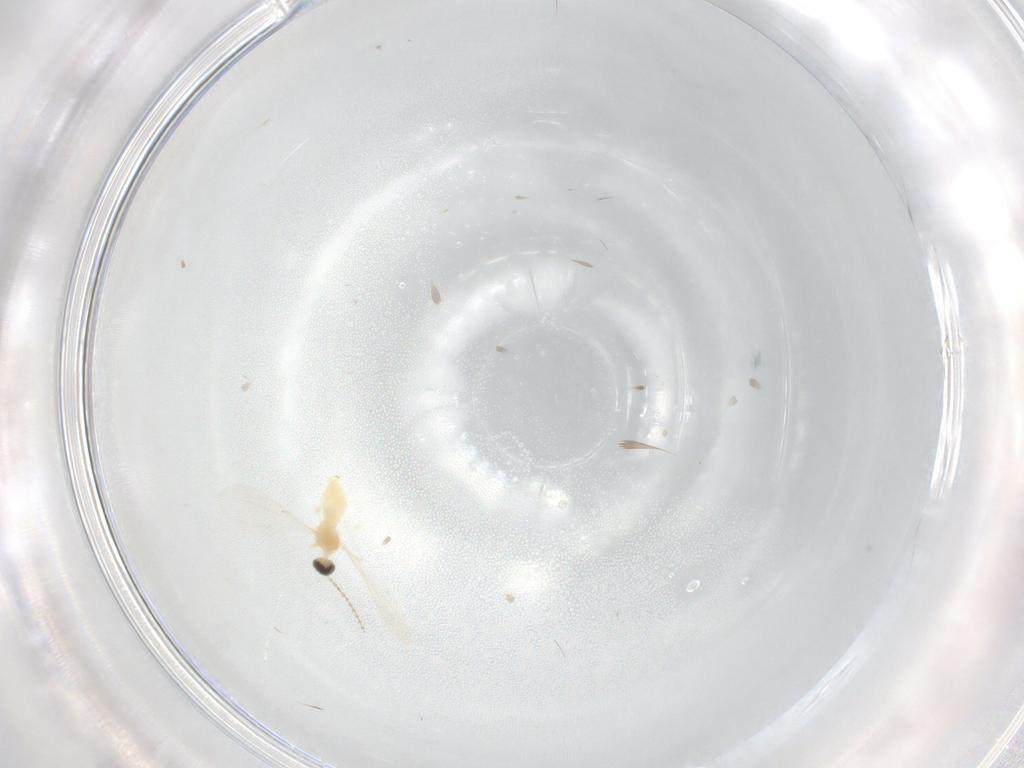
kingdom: Animalia
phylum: Arthropoda
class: Insecta
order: Diptera
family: Cecidomyiidae
